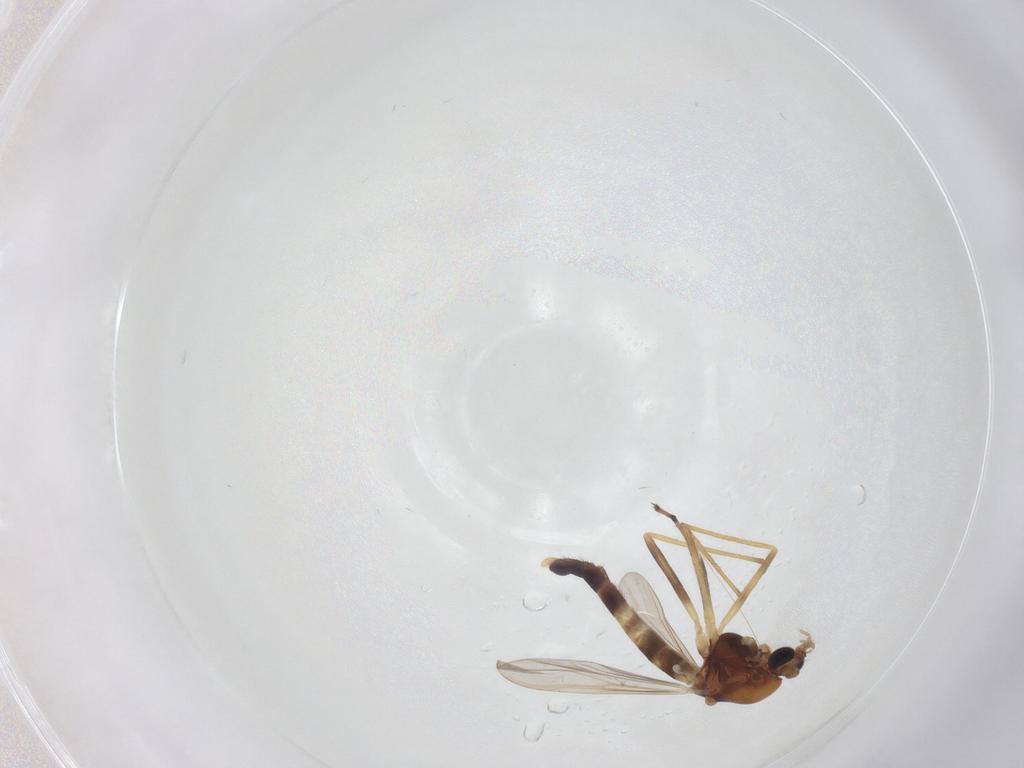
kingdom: Animalia
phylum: Arthropoda
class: Insecta
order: Diptera
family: Chironomidae
